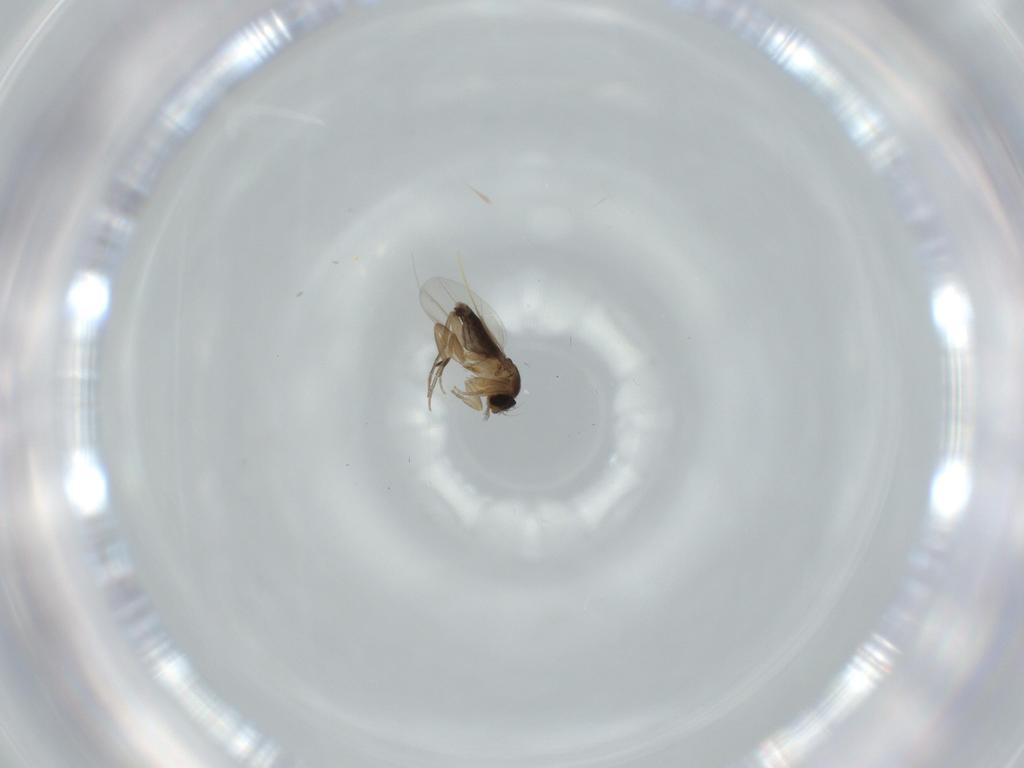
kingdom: Animalia
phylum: Arthropoda
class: Insecta
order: Diptera
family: Phoridae
